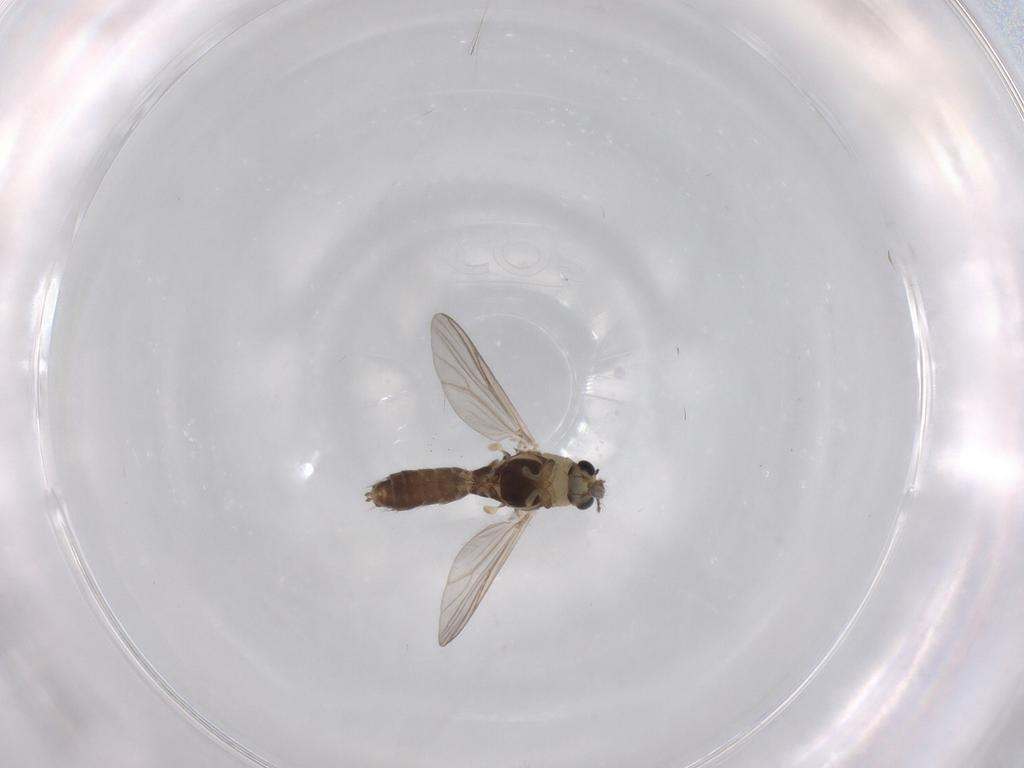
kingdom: Animalia
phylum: Arthropoda
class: Insecta
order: Diptera
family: Chironomidae
